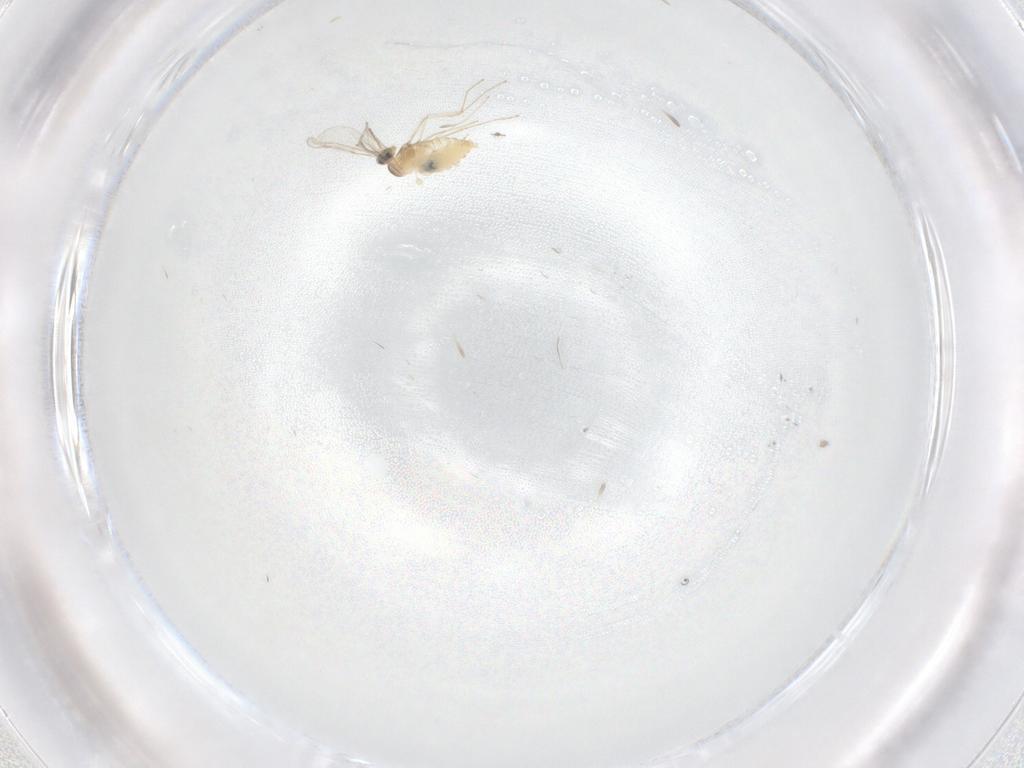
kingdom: Animalia
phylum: Arthropoda
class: Insecta
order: Diptera
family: Cecidomyiidae
